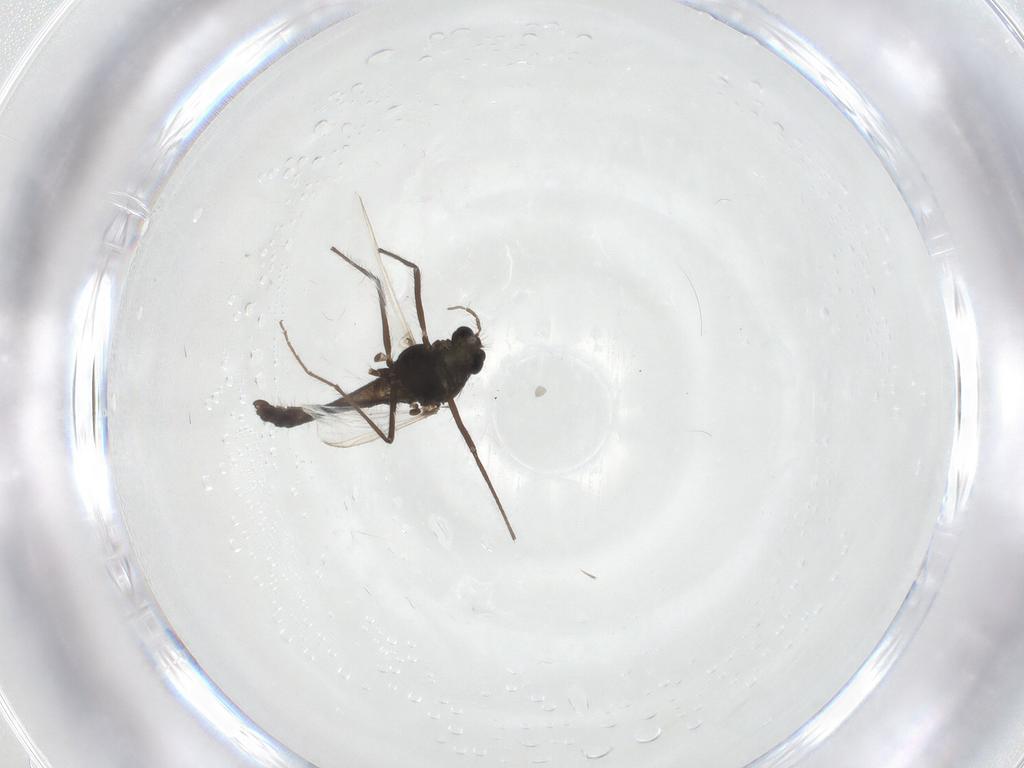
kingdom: Animalia
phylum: Arthropoda
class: Insecta
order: Diptera
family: Chironomidae
